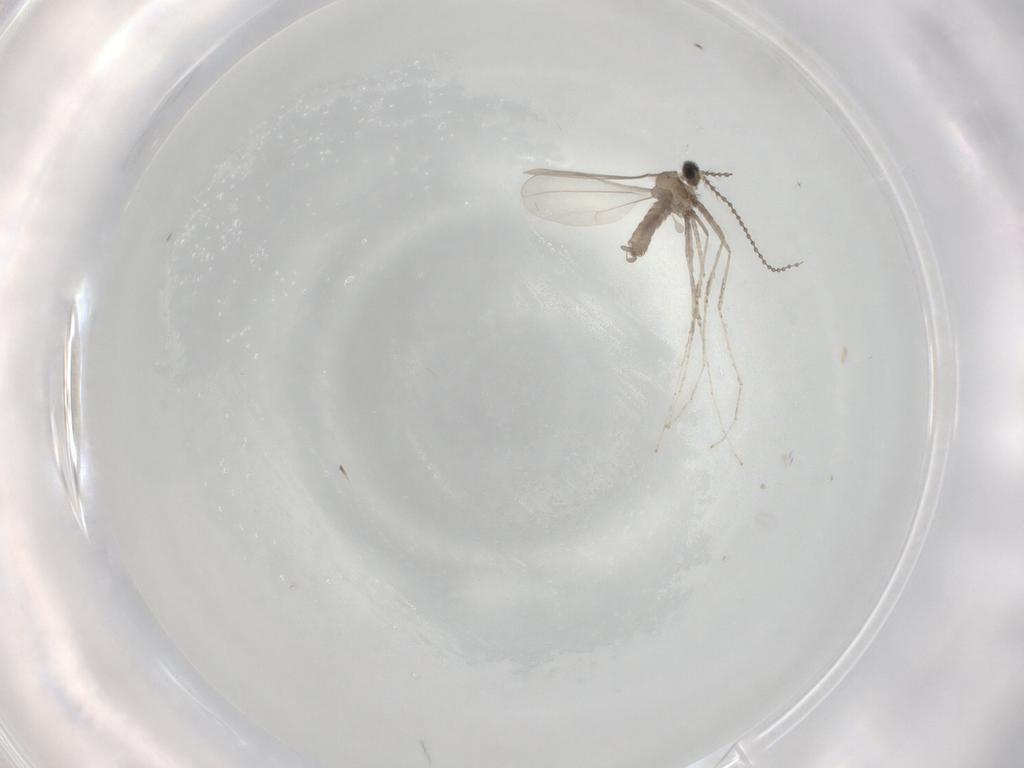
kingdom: Animalia
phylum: Arthropoda
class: Insecta
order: Diptera
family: Cecidomyiidae
